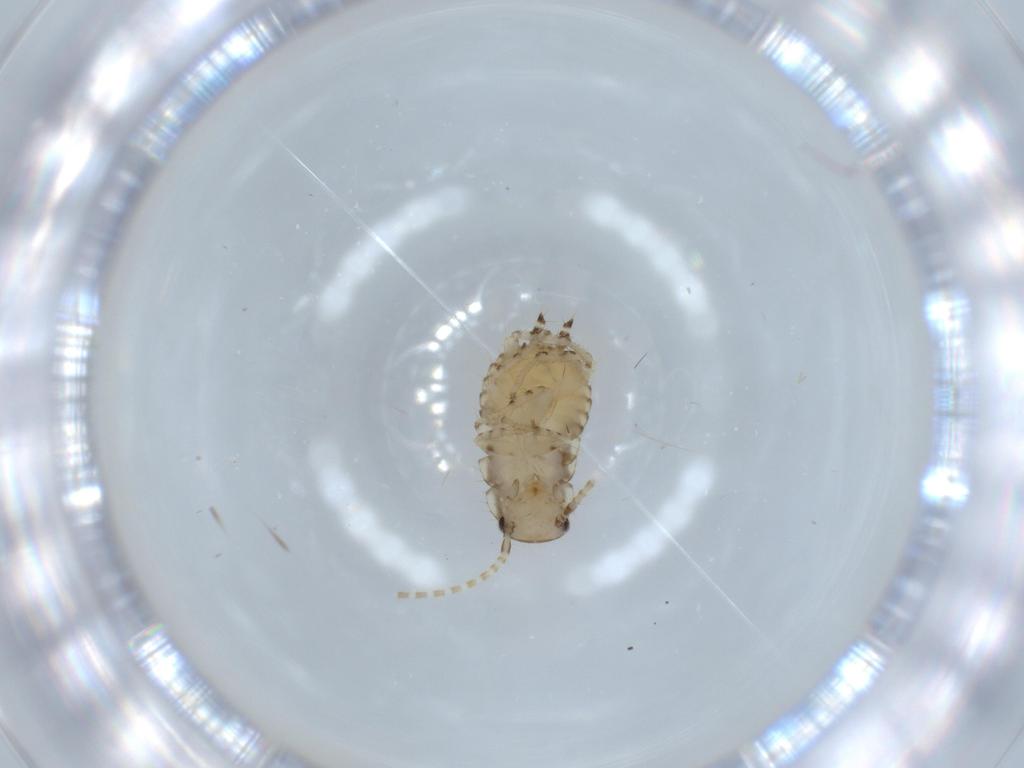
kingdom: Animalia
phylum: Arthropoda
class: Insecta
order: Blattodea
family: Ectobiidae
